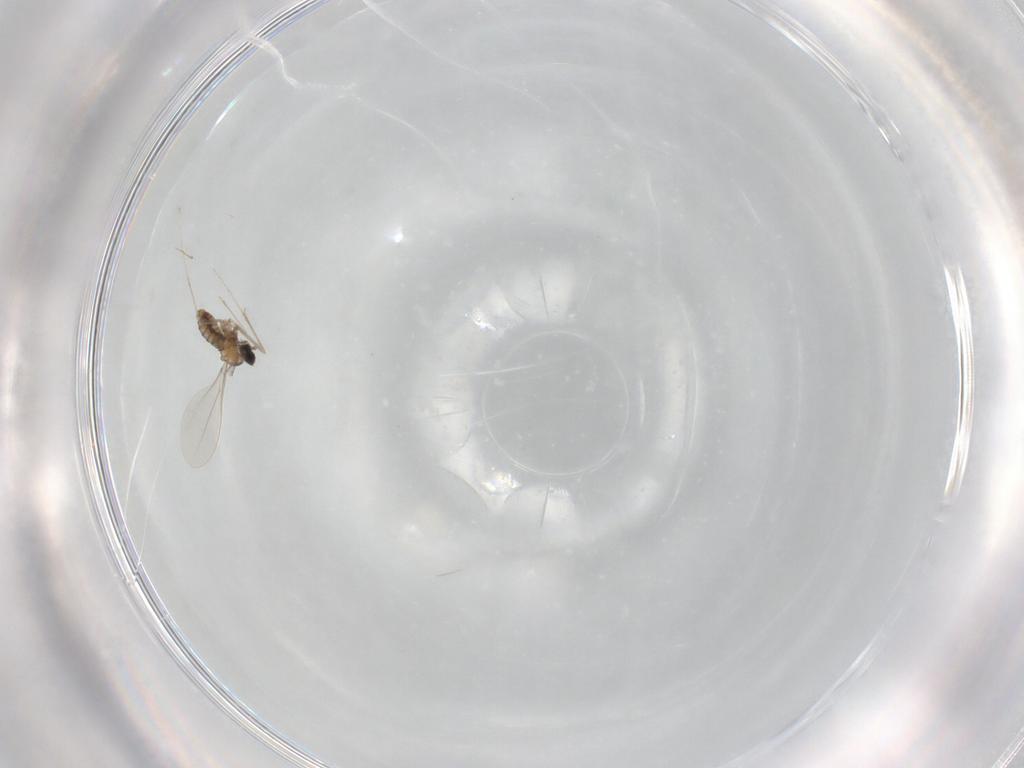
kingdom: Animalia
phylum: Arthropoda
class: Insecta
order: Diptera
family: Cecidomyiidae
